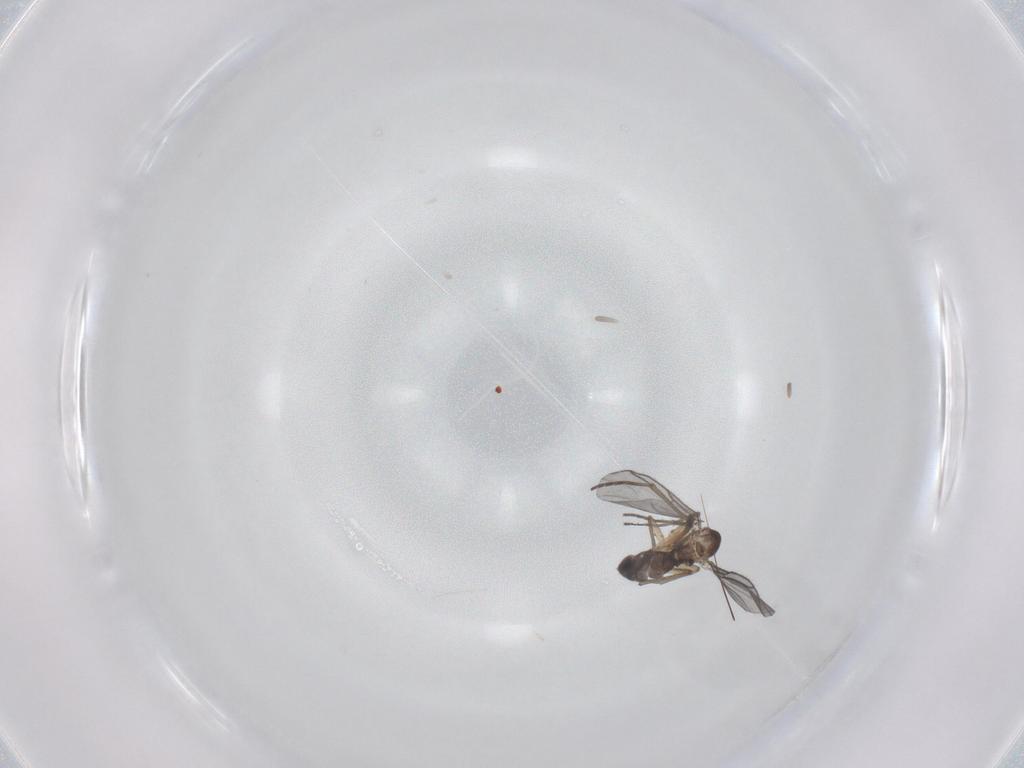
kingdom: Animalia
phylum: Arthropoda
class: Insecta
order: Diptera
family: Sciaridae
